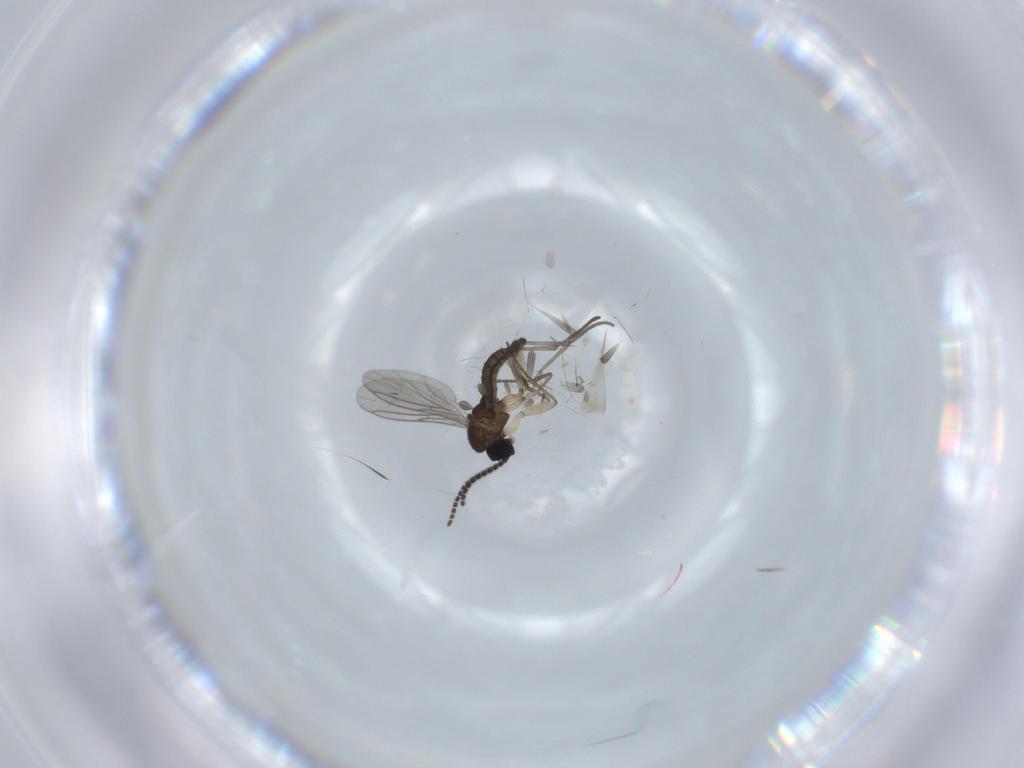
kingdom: Animalia
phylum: Arthropoda
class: Insecta
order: Diptera
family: Sciaridae
